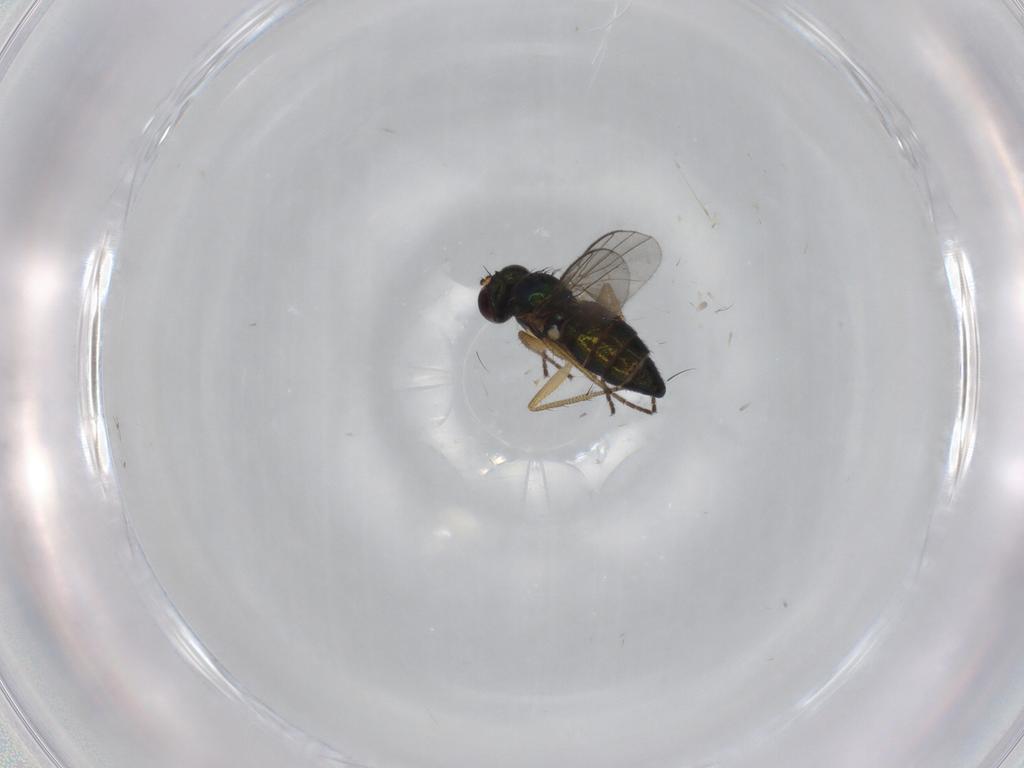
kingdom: Animalia
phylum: Arthropoda
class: Insecta
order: Diptera
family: Dolichopodidae
